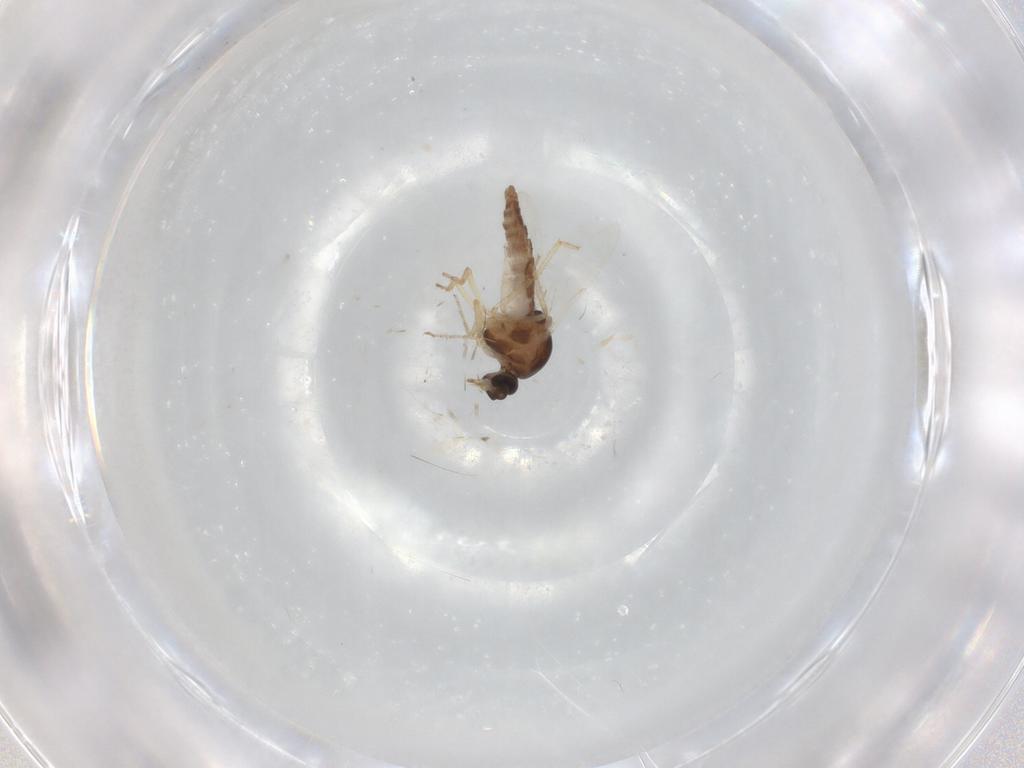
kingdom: Animalia
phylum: Arthropoda
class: Insecta
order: Diptera
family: Ceratopogonidae
